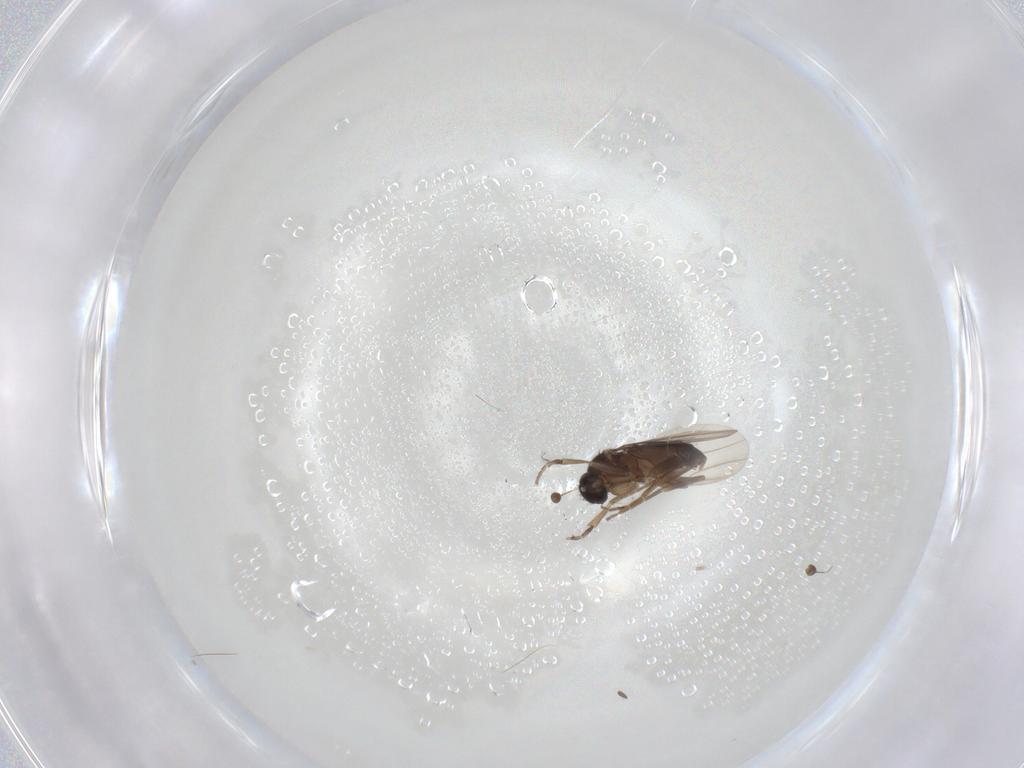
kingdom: Animalia
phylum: Arthropoda
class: Insecta
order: Diptera
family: Phoridae
